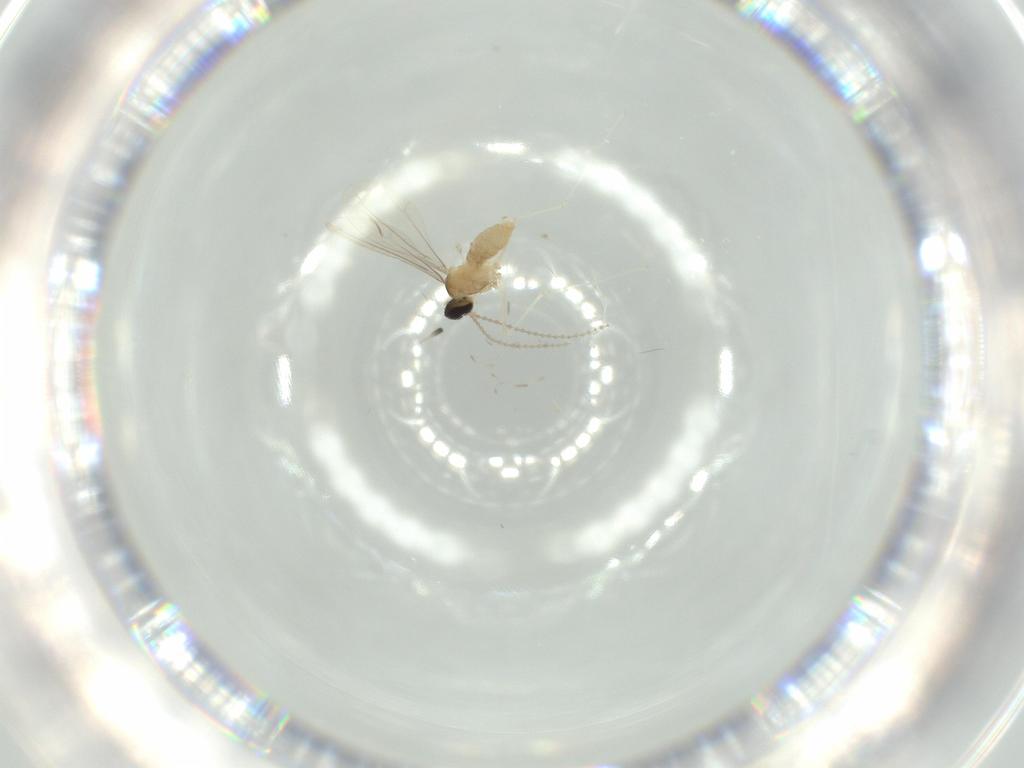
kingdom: Animalia
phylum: Arthropoda
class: Insecta
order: Diptera
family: Cecidomyiidae
